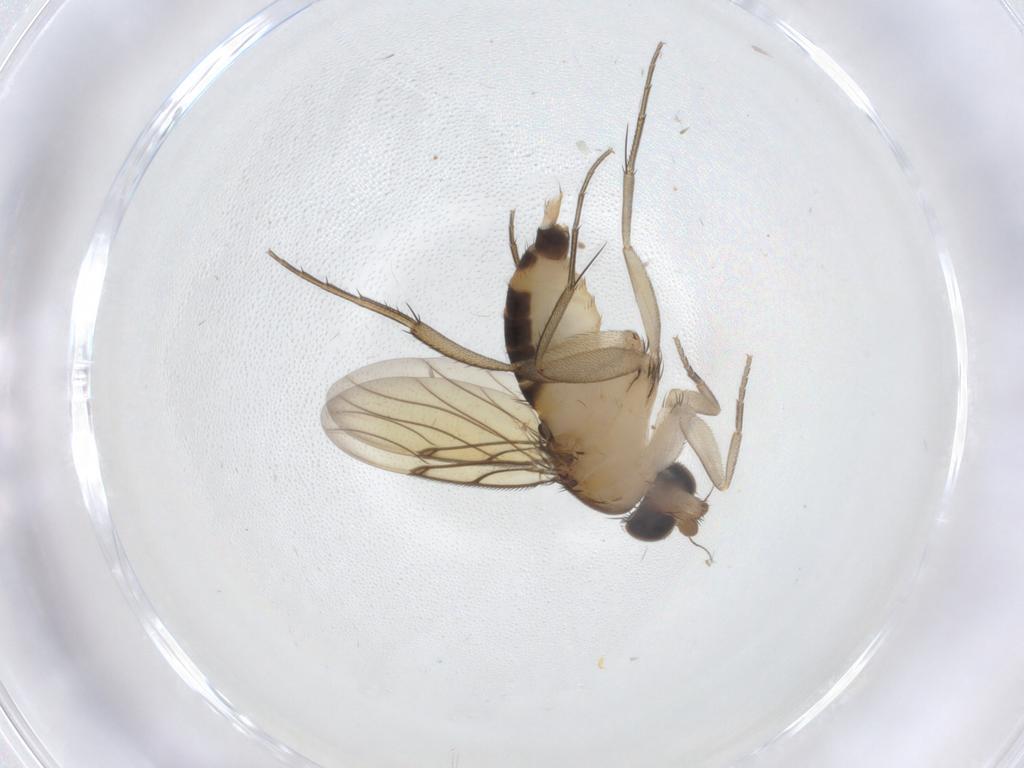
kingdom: Animalia
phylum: Arthropoda
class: Insecta
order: Diptera
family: Phoridae
